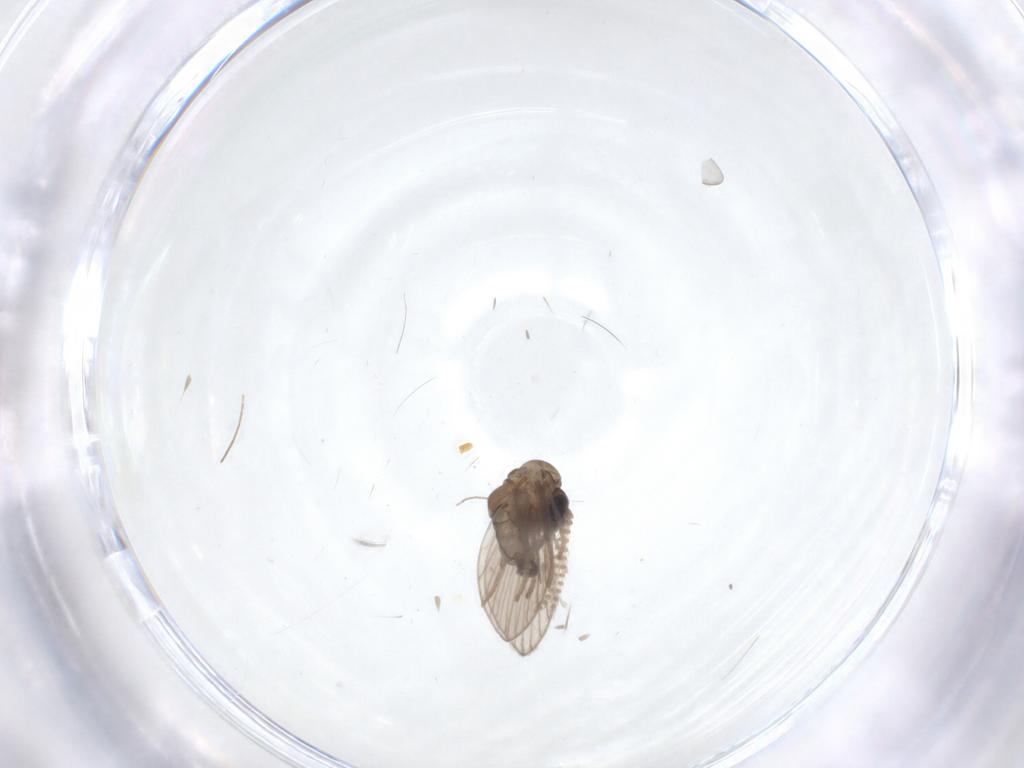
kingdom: Animalia
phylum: Arthropoda
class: Insecta
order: Diptera
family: Psychodidae
